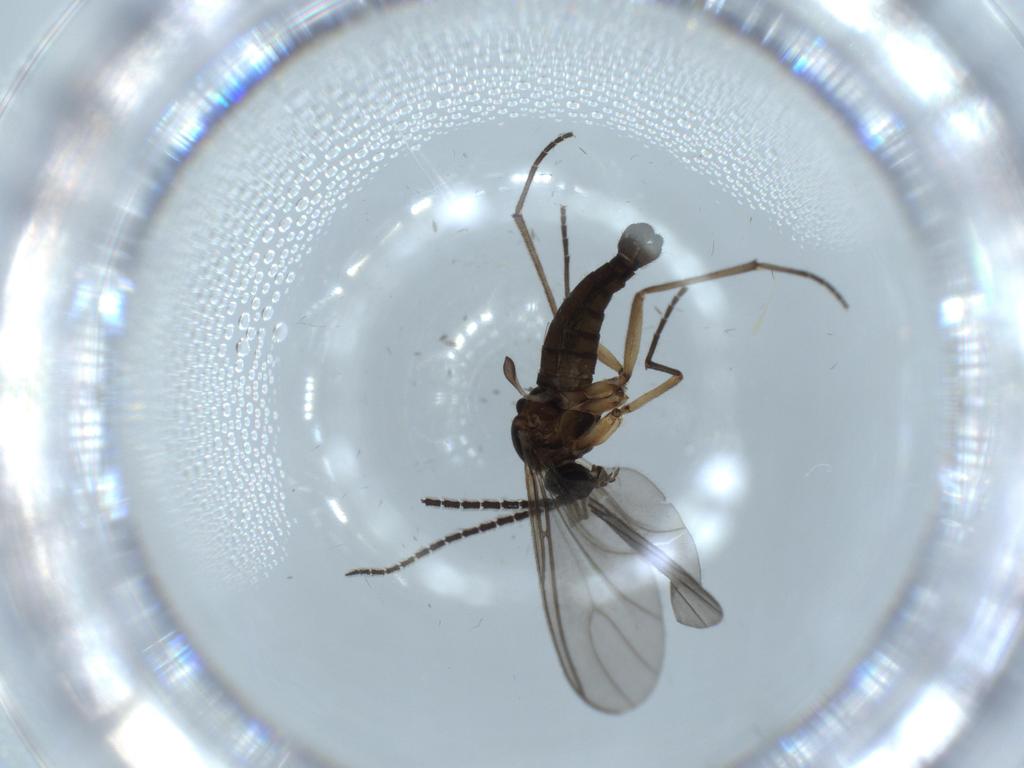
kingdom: Animalia
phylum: Arthropoda
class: Insecta
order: Diptera
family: Sciaridae
